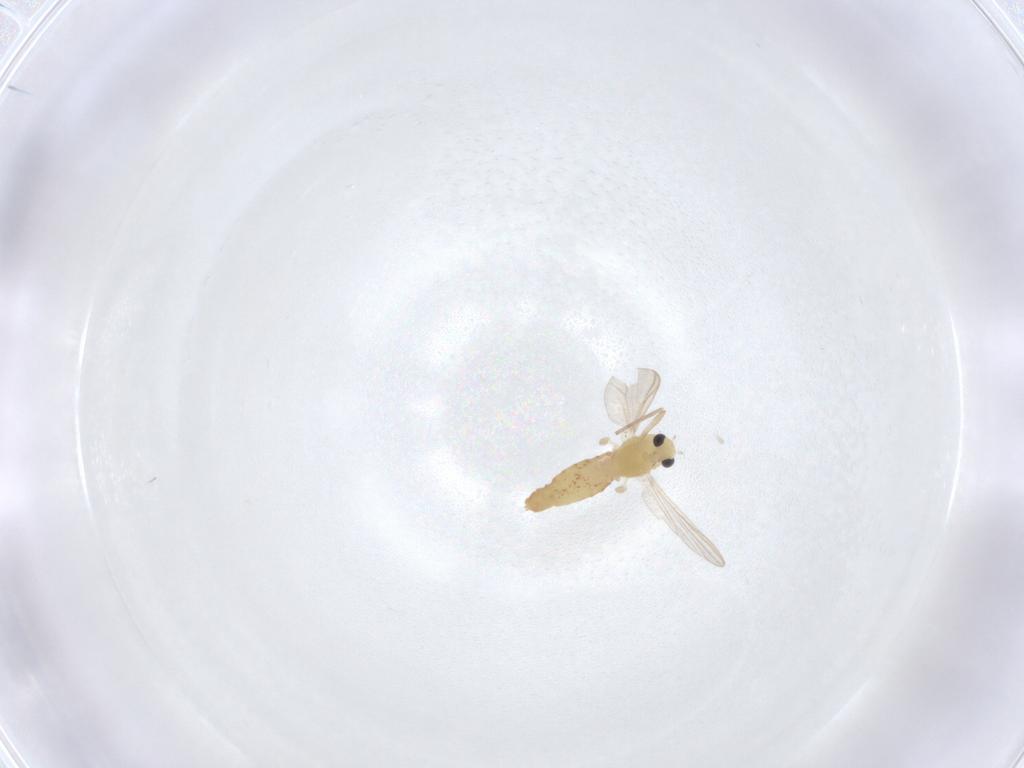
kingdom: Animalia
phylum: Arthropoda
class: Insecta
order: Diptera
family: Chironomidae
